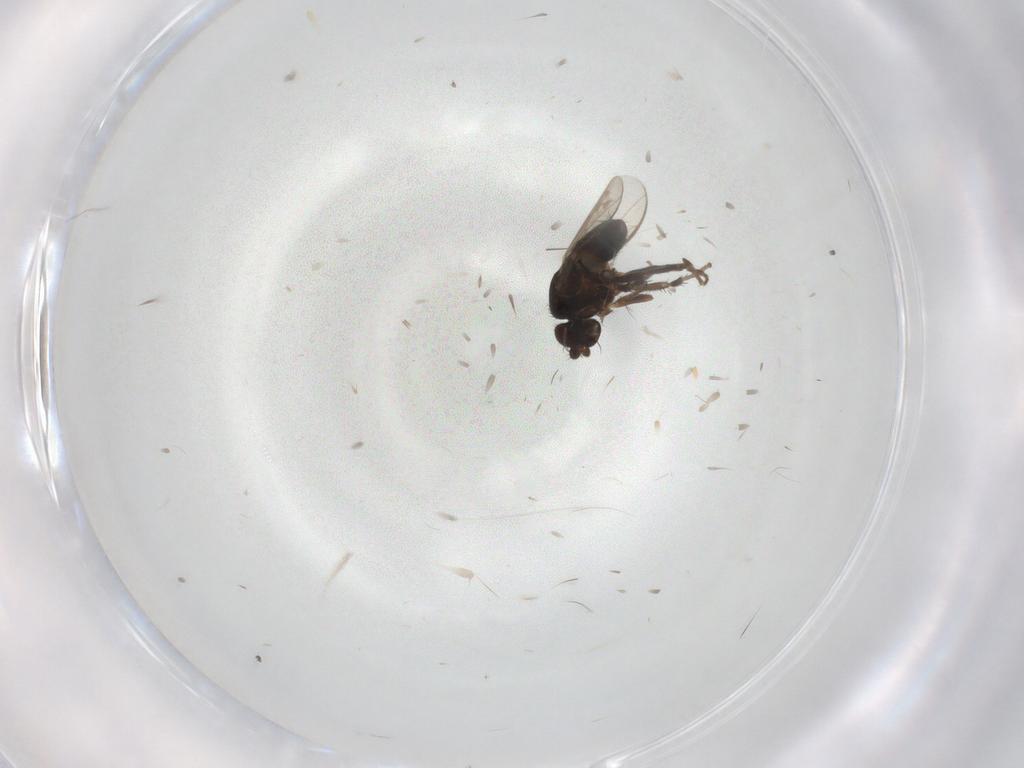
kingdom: Animalia
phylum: Arthropoda
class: Insecta
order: Diptera
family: Sphaeroceridae
